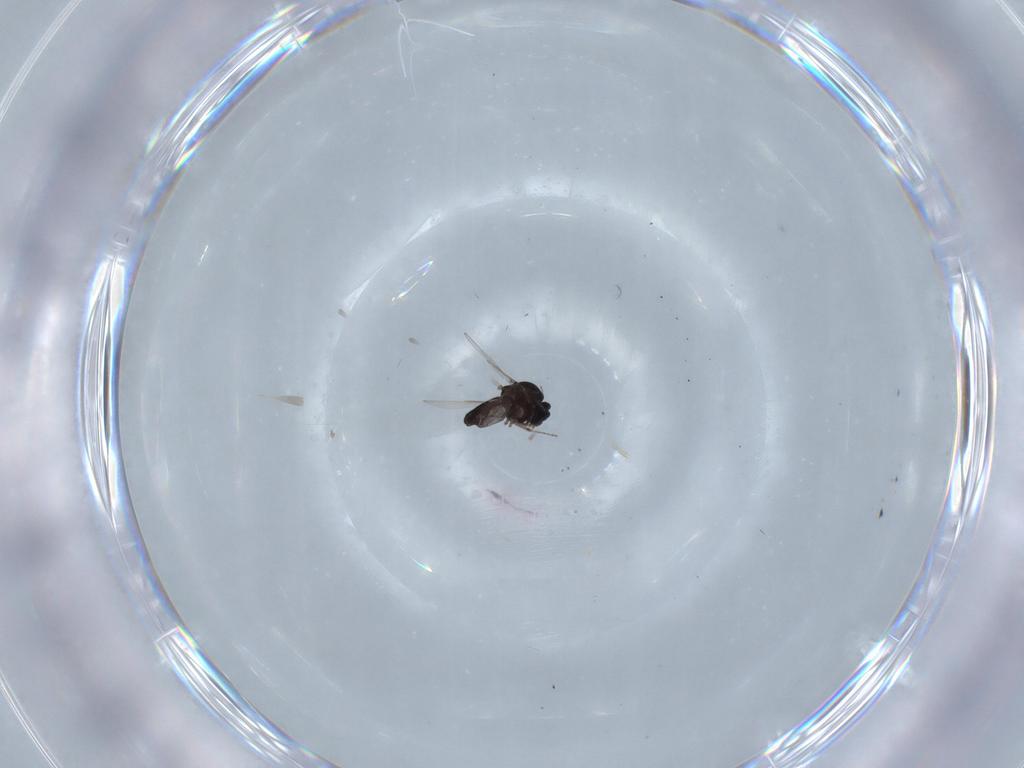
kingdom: Animalia
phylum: Arthropoda
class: Insecta
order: Diptera
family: Ceratopogonidae
